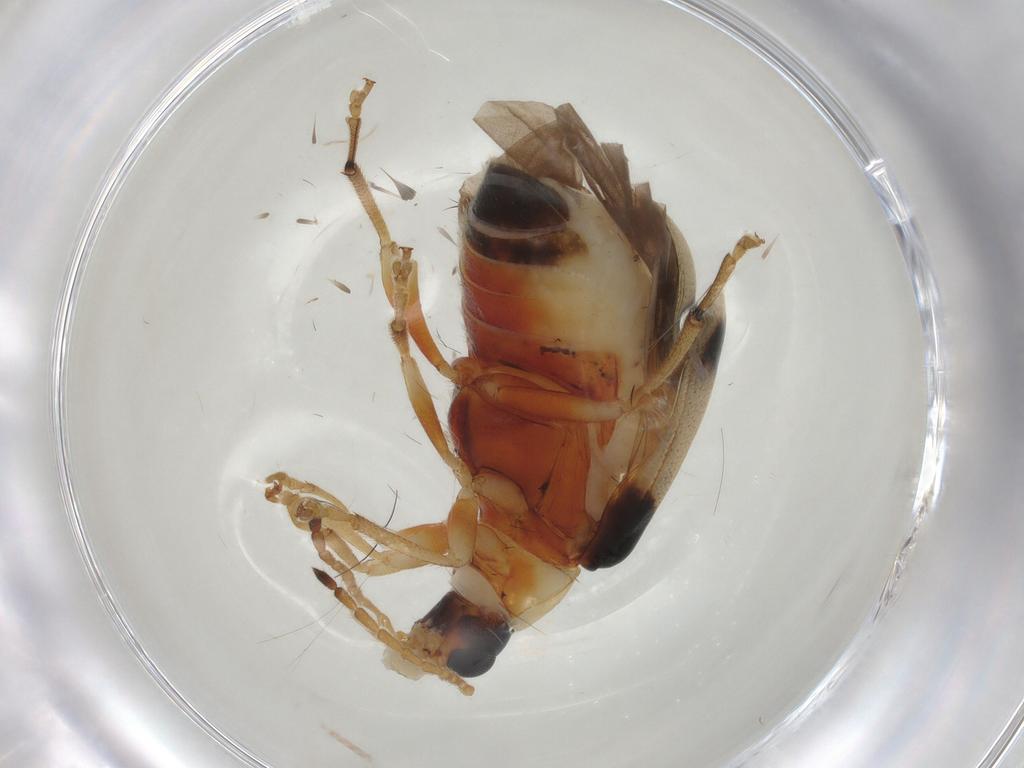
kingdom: Animalia
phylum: Arthropoda
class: Insecta
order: Coleoptera
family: Chrysomelidae
